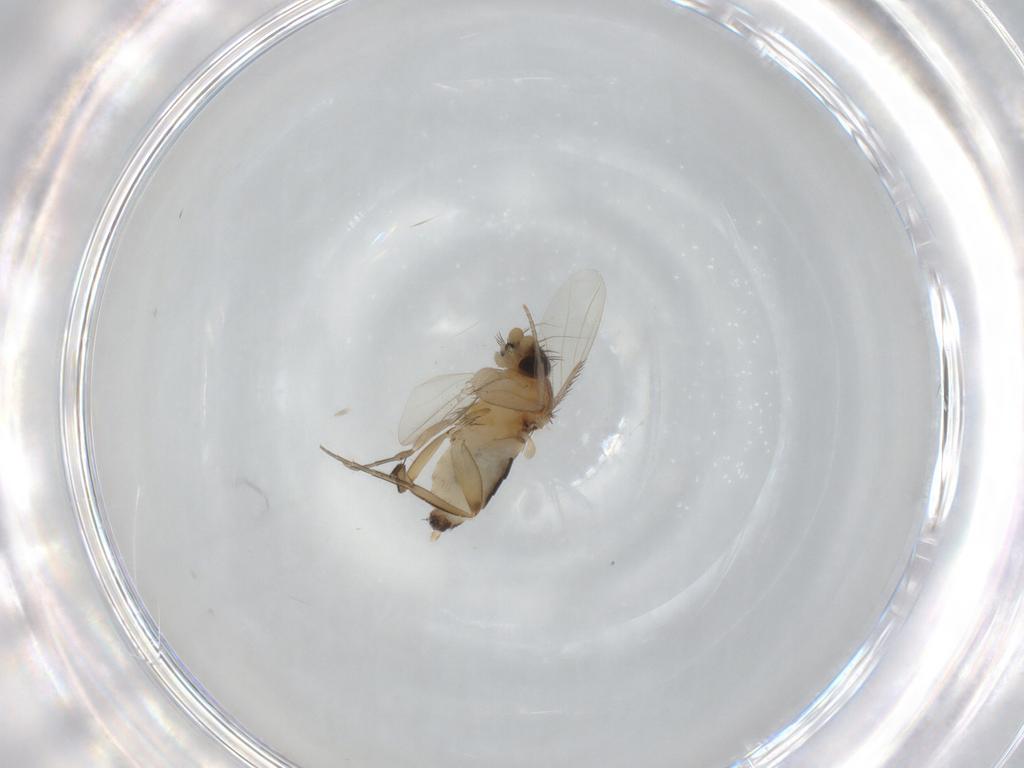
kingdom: Animalia
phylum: Arthropoda
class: Insecta
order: Diptera
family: Phoridae
